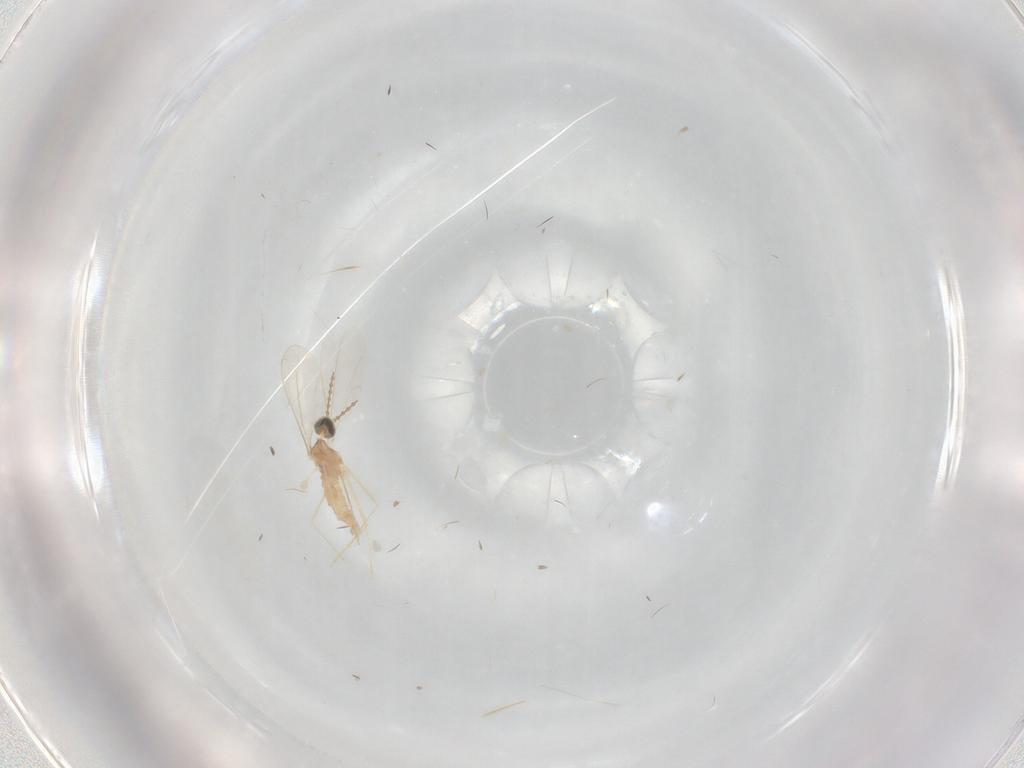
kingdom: Animalia
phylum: Arthropoda
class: Insecta
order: Diptera
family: Cecidomyiidae
